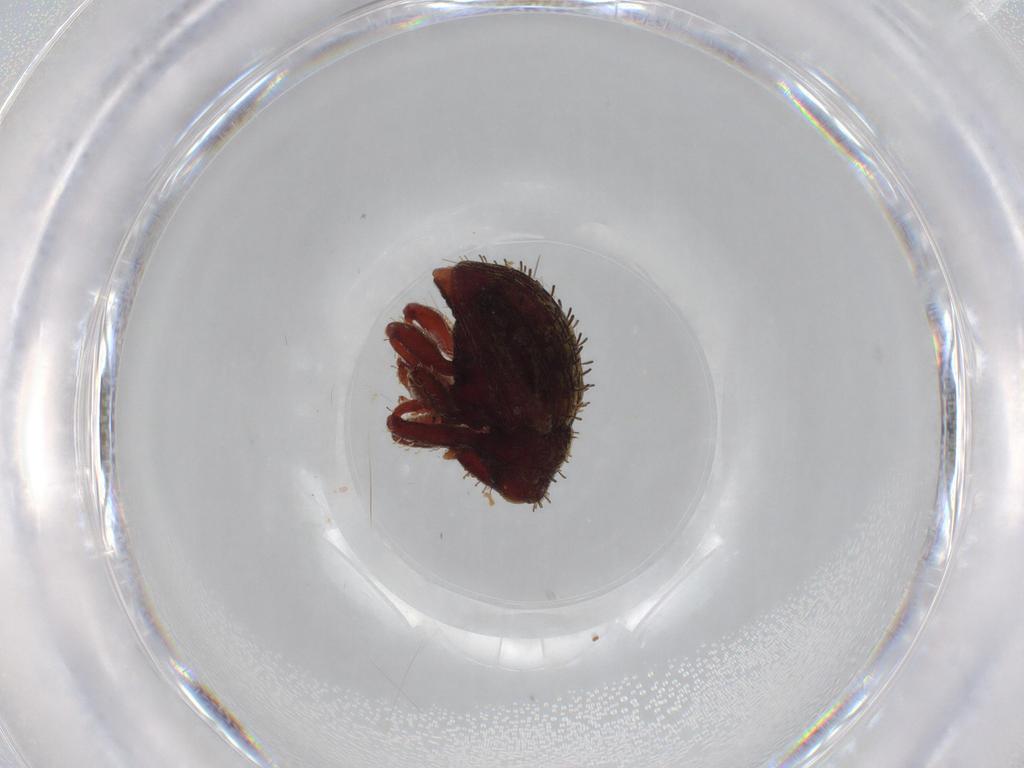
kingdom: Animalia
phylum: Arthropoda
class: Insecta
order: Coleoptera
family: Curculionidae
